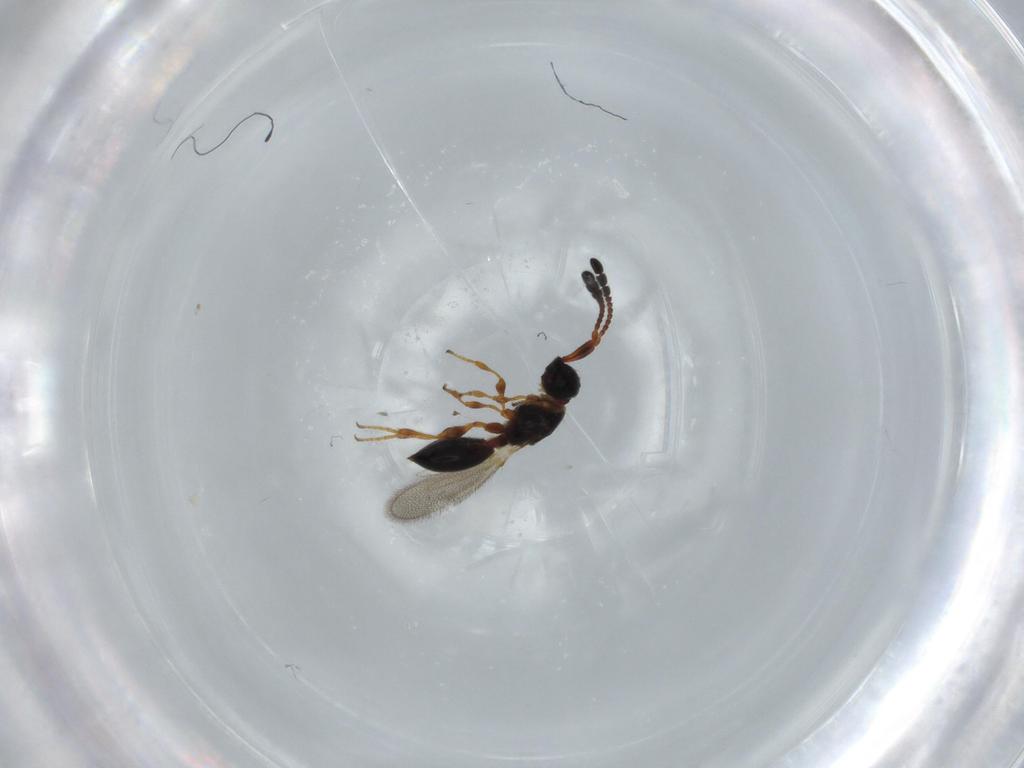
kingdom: Animalia
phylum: Arthropoda
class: Insecta
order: Hymenoptera
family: Diapriidae
